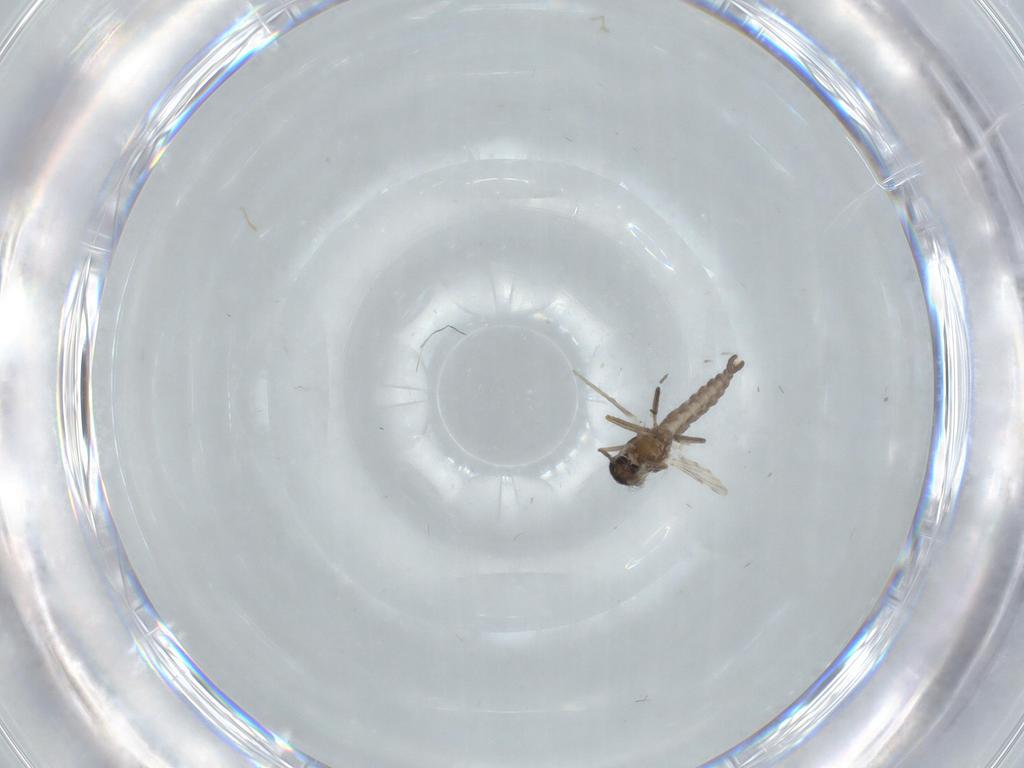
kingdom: Animalia
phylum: Arthropoda
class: Insecta
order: Diptera
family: Ceratopogonidae
